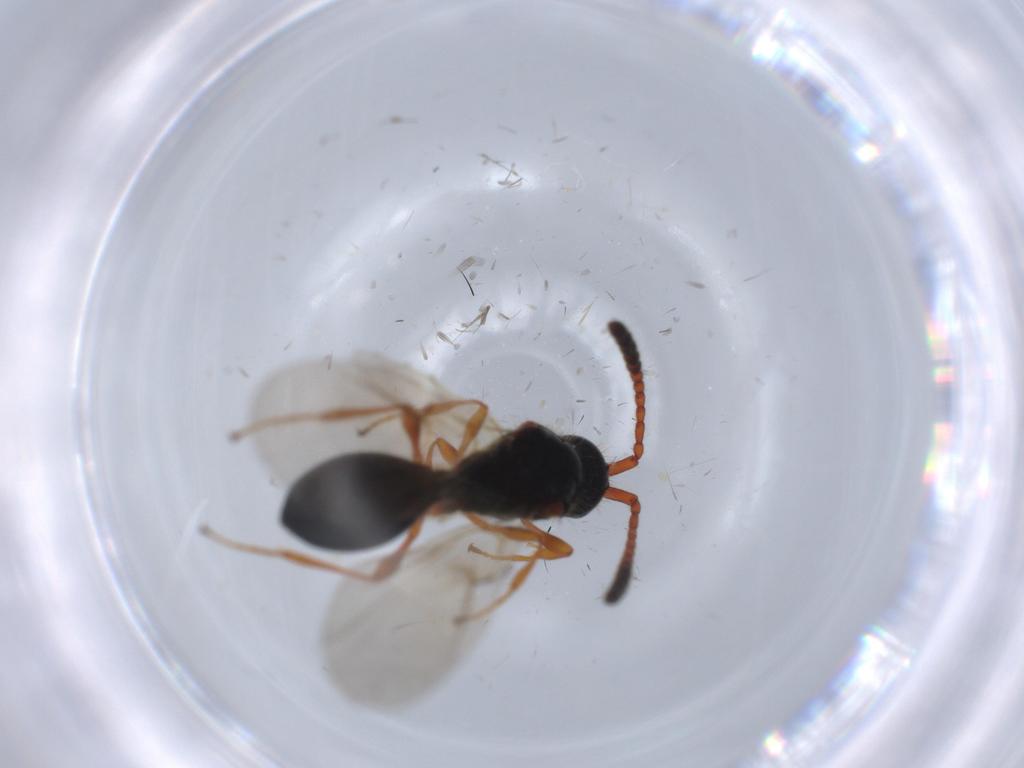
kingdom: Animalia
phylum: Arthropoda
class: Insecta
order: Hymenoptera
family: Diapriidae
